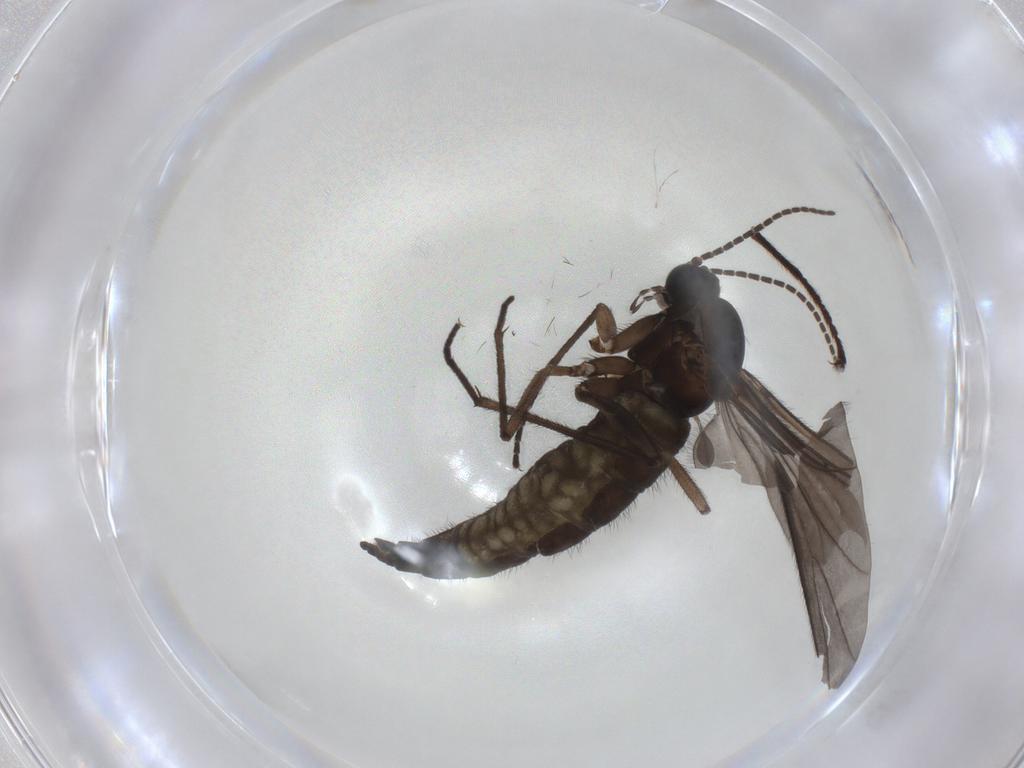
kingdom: Animalia
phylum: Arthropoda
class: Insecta
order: Diptera
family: Sciaridae
